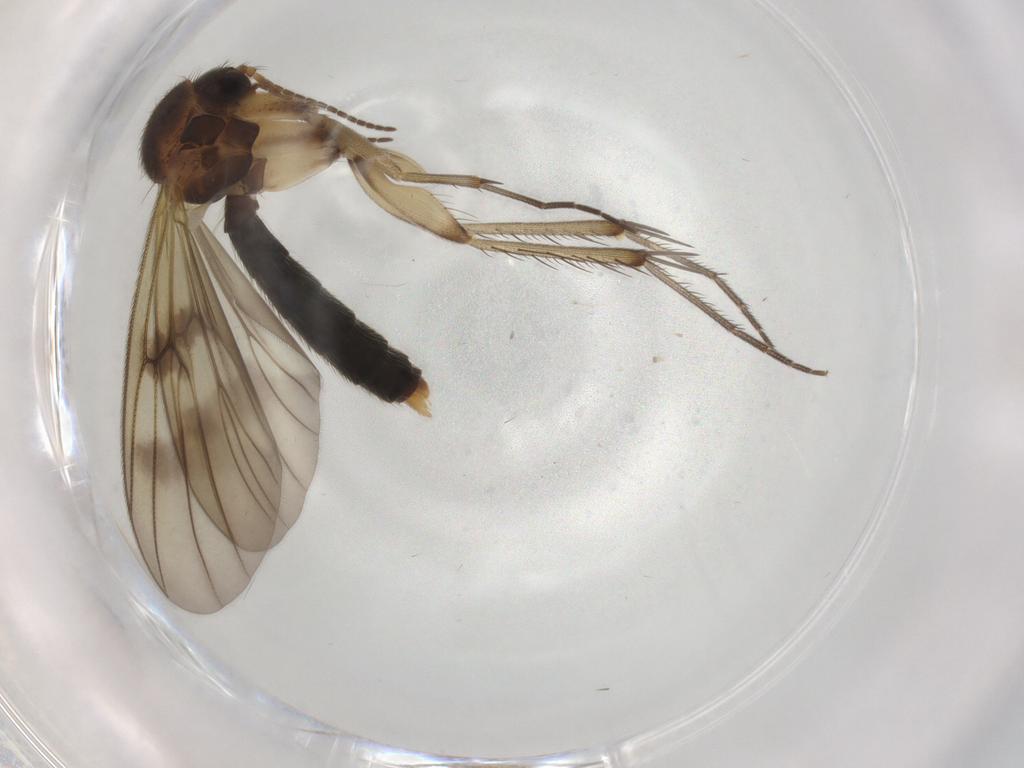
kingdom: Animalia
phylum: Arthropoda
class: Insecta
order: Diptera
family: Mycetophilidae
